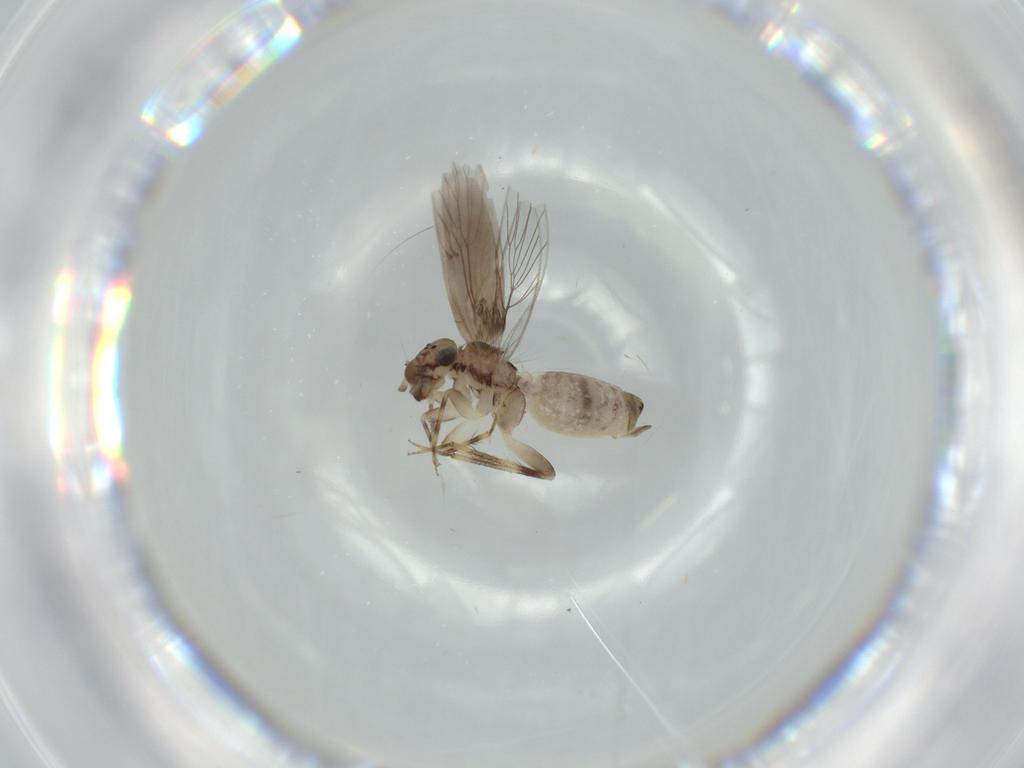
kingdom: Animalia
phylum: Arthropoda
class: Insecta
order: Psocodea
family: Lepidopsocidae
